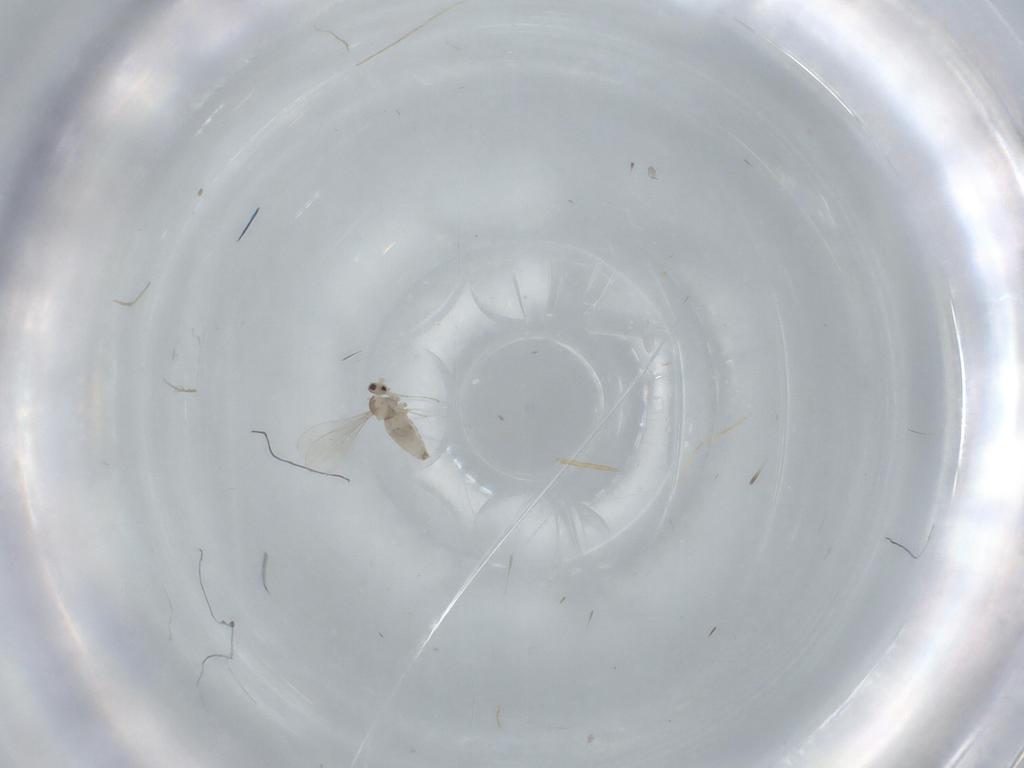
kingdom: Animalia
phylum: Arthropoda
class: Insecta
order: Diptera
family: Cecidomyiidae
